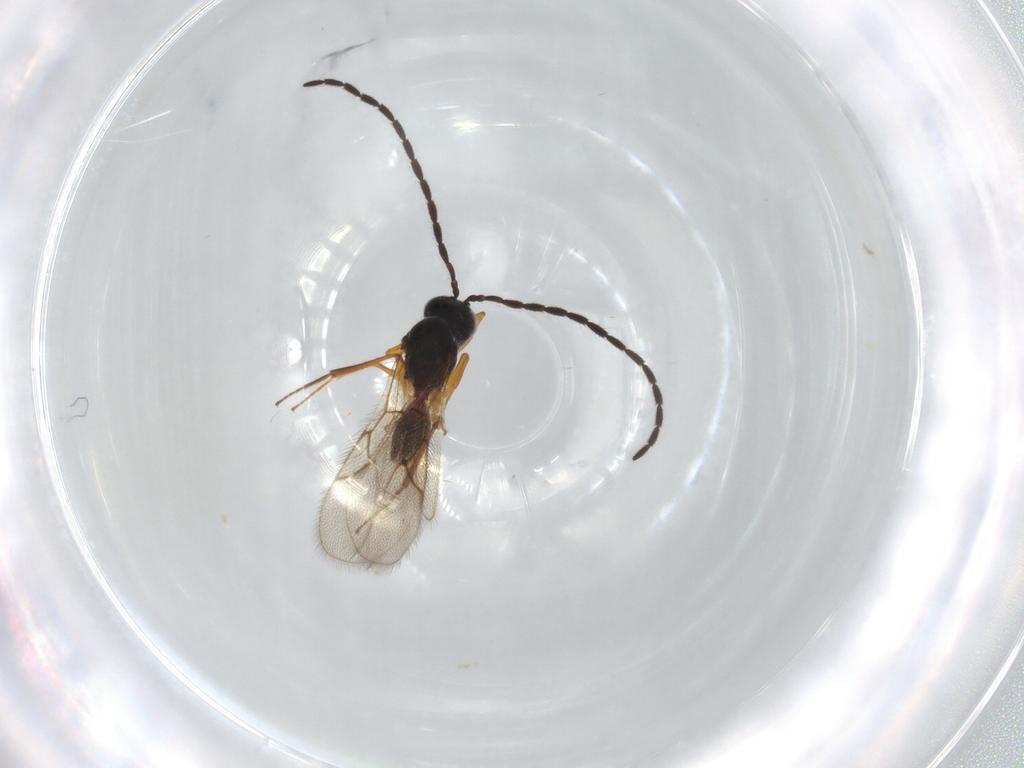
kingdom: Animalia
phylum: Arthropoda
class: Insecta
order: Hymenoptera
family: Figitidae
